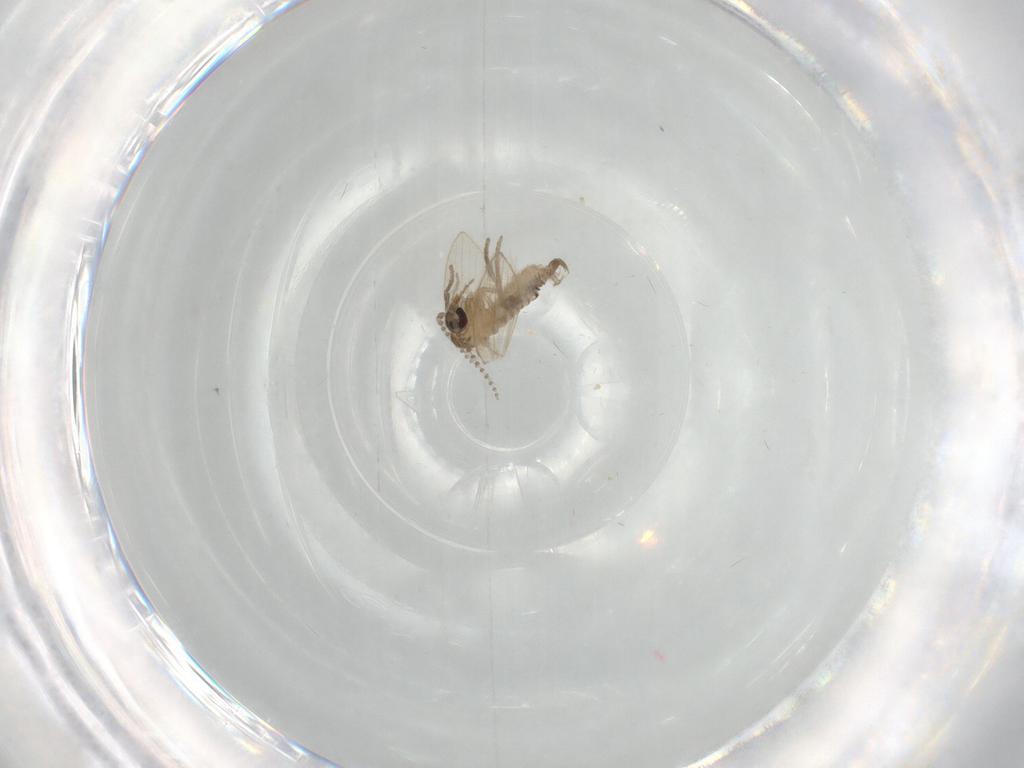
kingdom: Animalia
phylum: Arthropoda
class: Insecta
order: Diptera
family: Psychodidae
